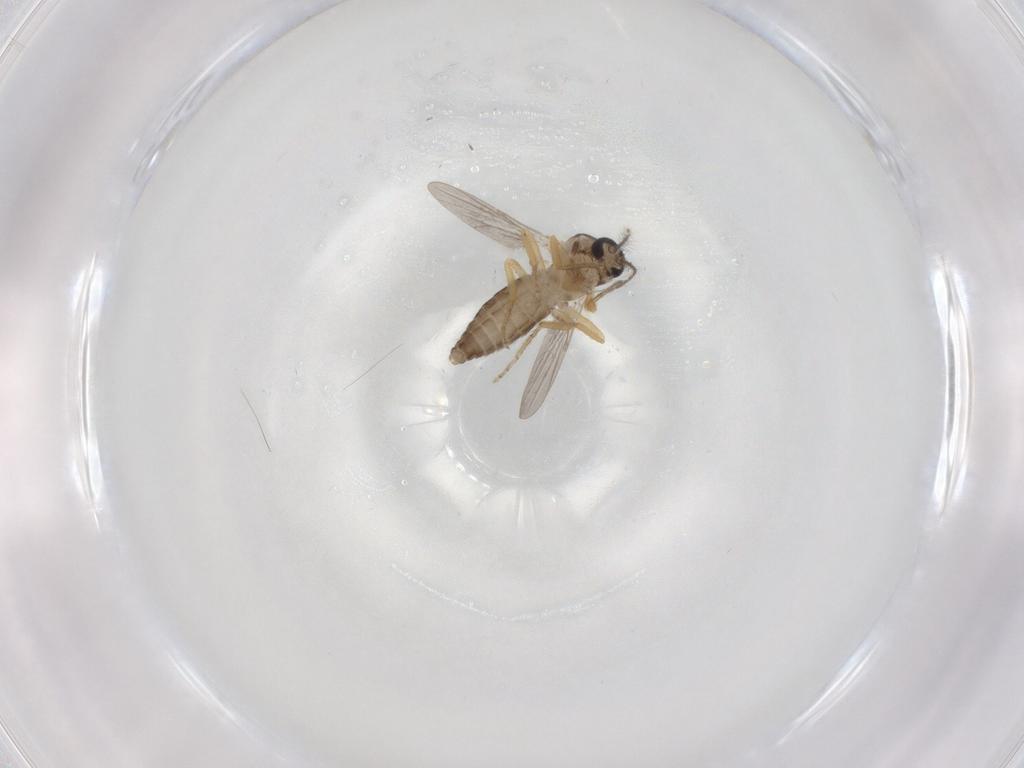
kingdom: Animalia
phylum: Arthropoda
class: Insecta
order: Diptera
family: Ceratopogonidae
